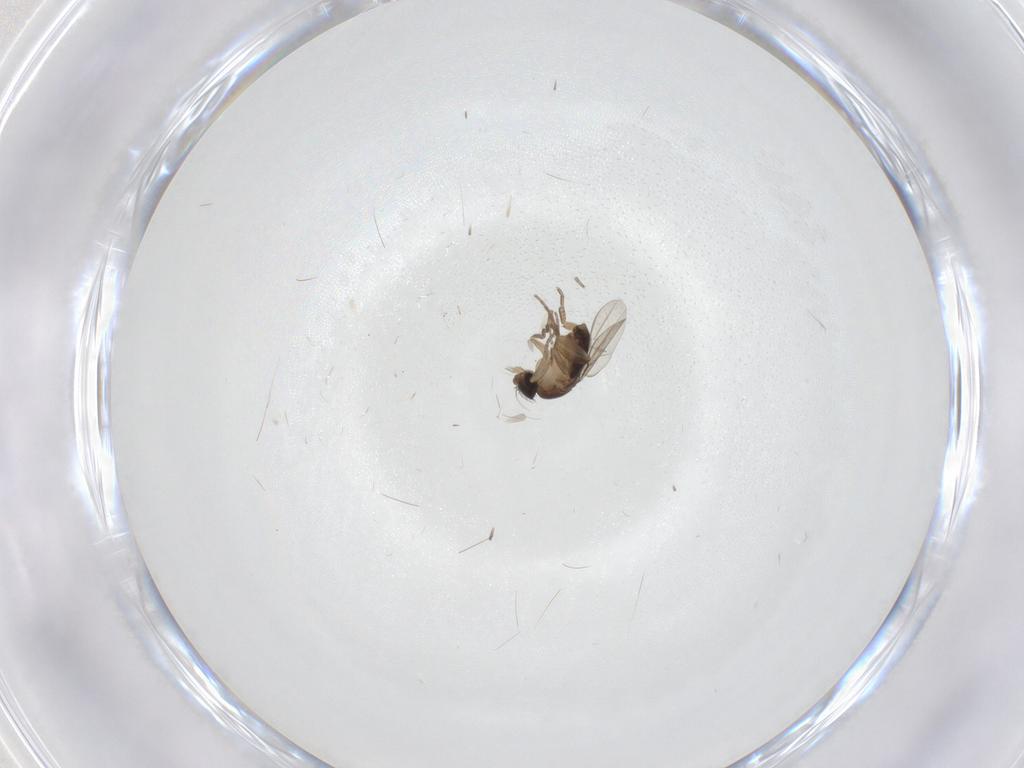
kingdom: Animalia
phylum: Arthropoda
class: Insecta
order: Diptera
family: Phoridae
